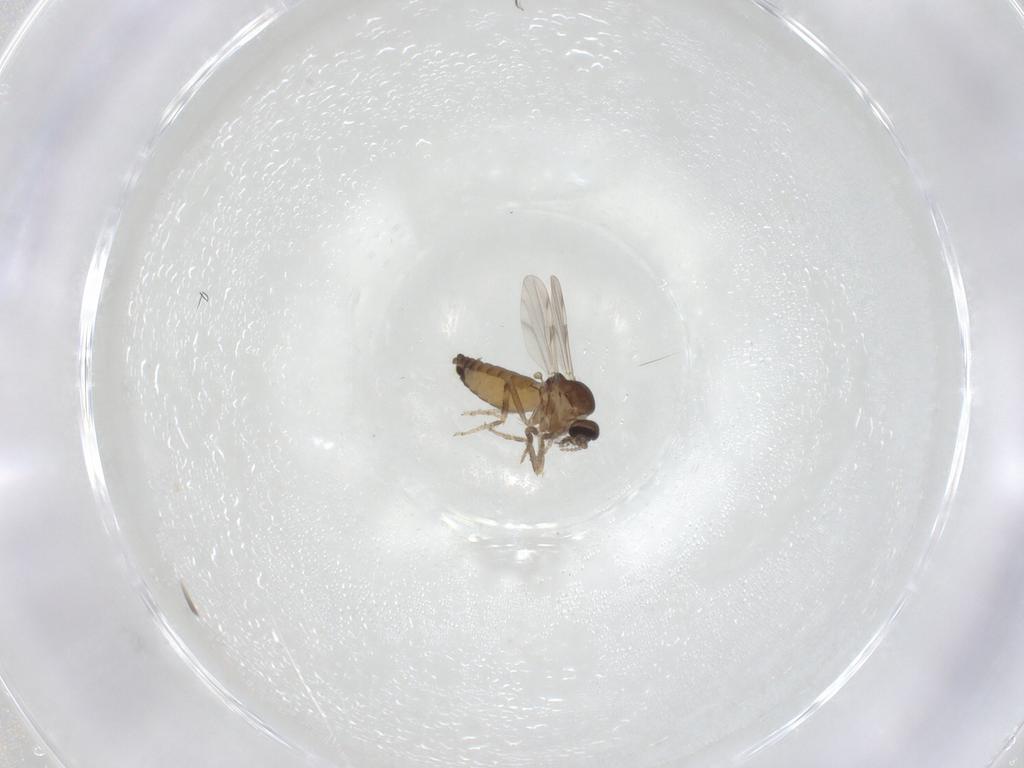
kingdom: Animalia
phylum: Arthropoda
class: Insecta
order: Diptera
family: Ceratopogonidae
